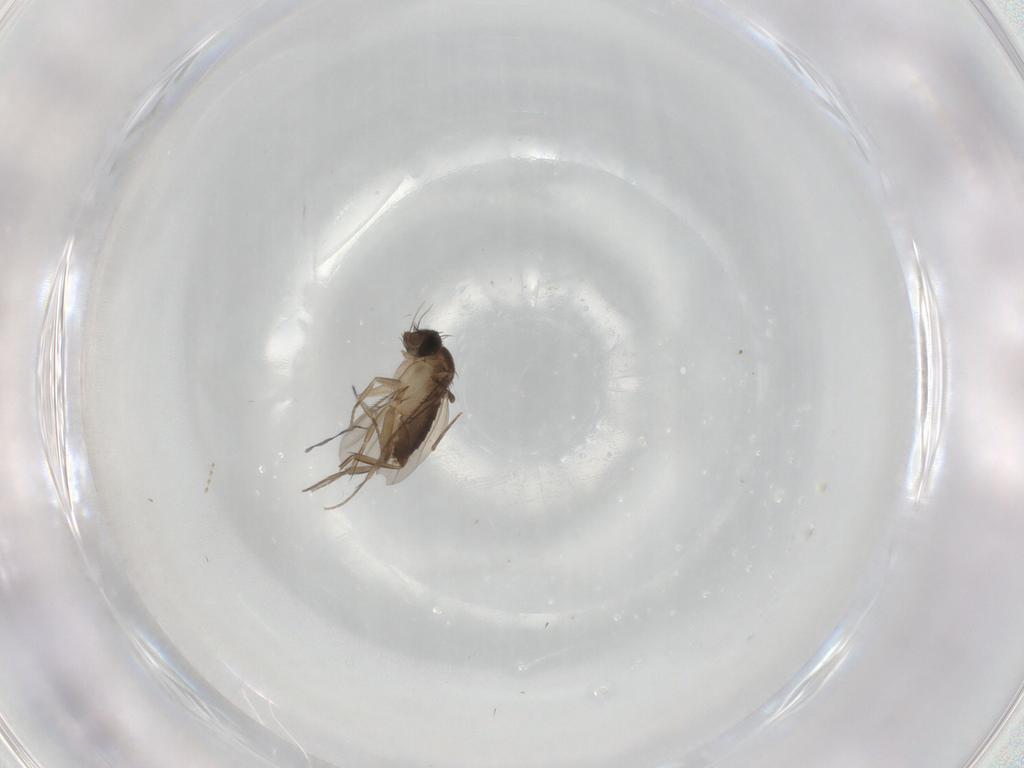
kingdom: Animalia
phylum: Arthropoda
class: Insecta
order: Diptera
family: Phoridae
